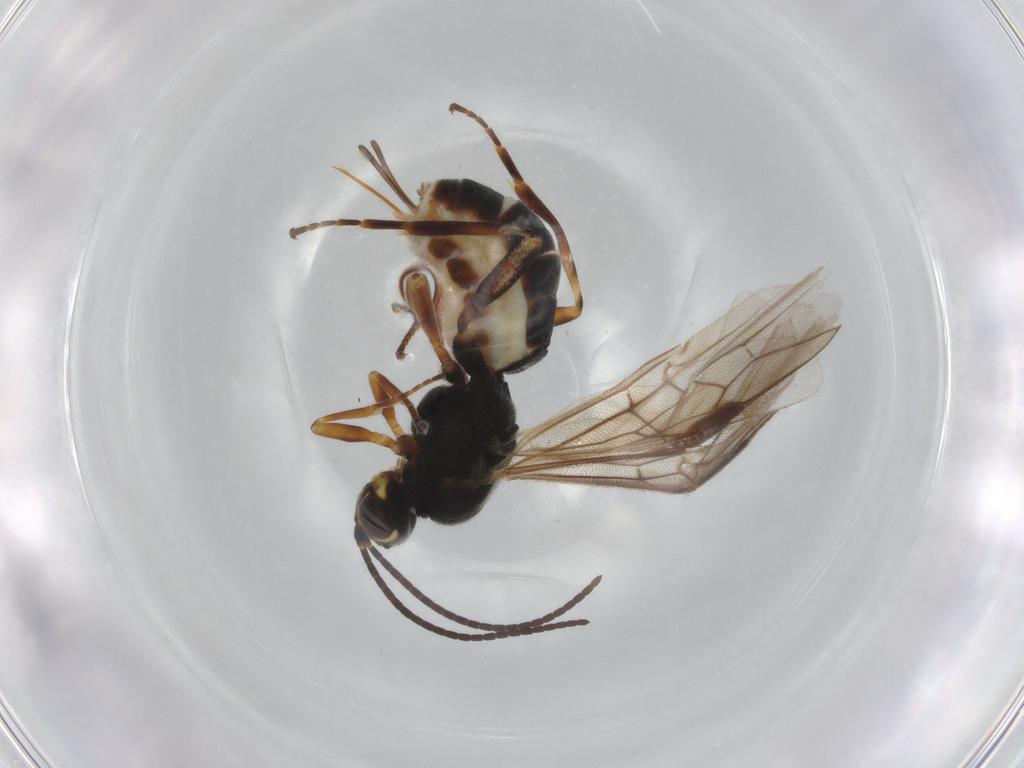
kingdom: Animalia
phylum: Arthropoda
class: Insecta
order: Hymenoptera
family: Braconidae
